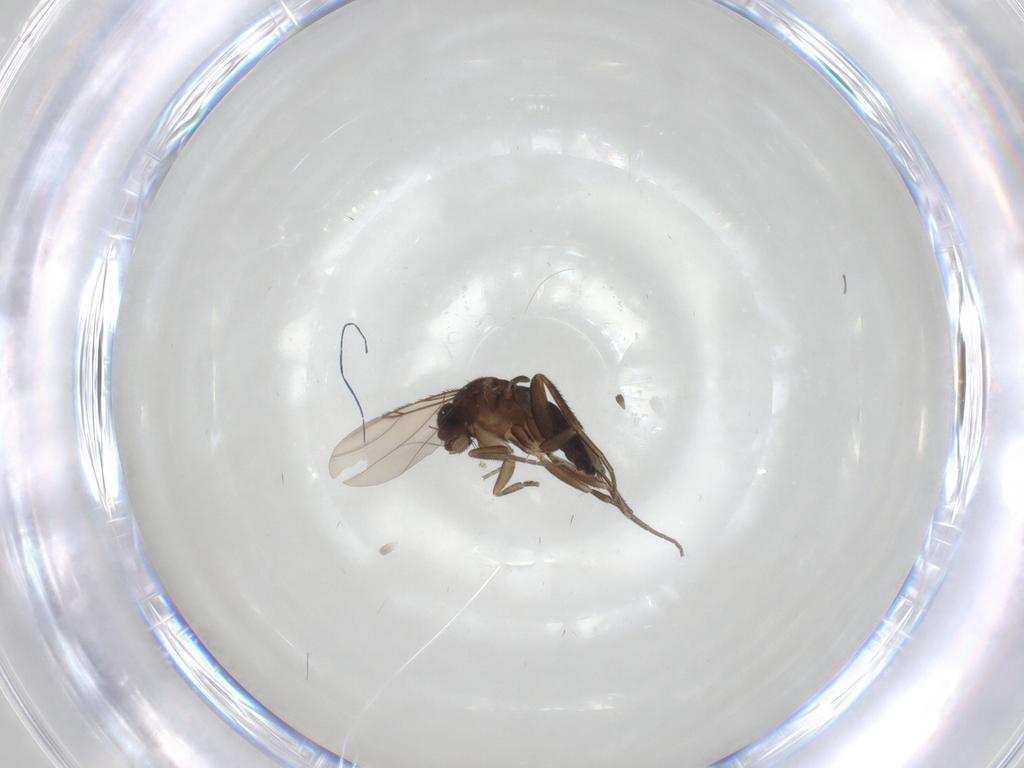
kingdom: Animalia
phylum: Arthropoda
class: Insecta
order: Diptera
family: Phoridae
